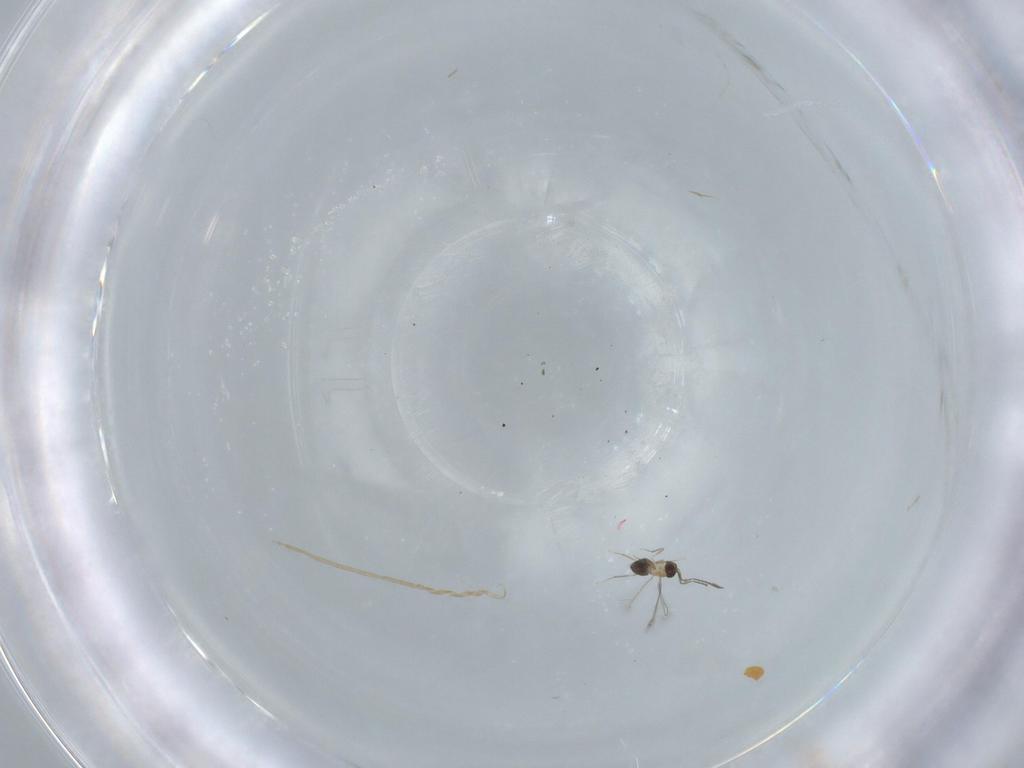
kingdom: Animalia
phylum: Arthropoda
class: Insecta
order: Hymenoptera
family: Mymaridae
